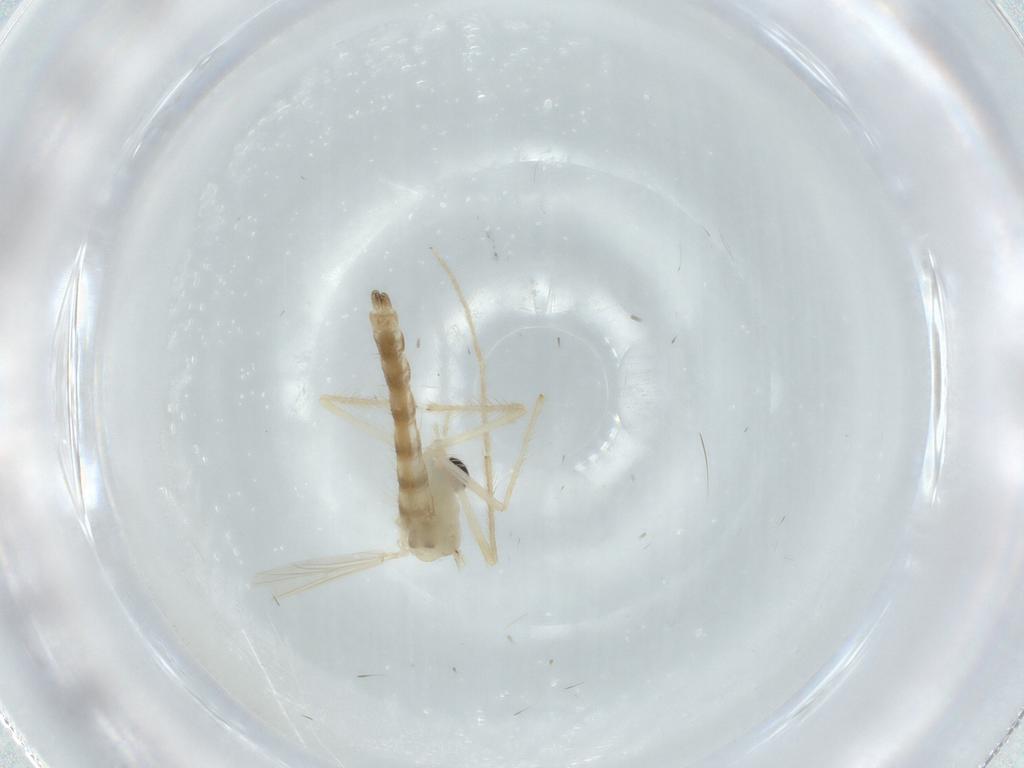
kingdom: Animalia
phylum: Arthropoda
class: Insecta
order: Diptera
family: Chironomidae
